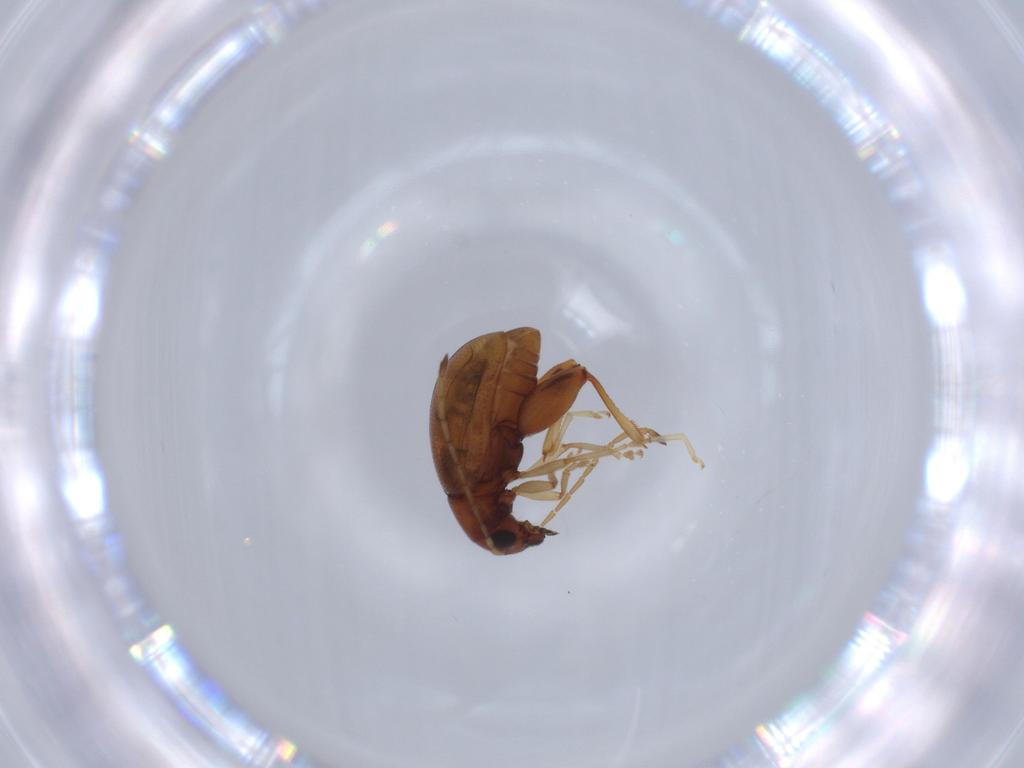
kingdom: Animalia
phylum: Arthropoda
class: Insecta
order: Coleoptera
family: Chrysomelidae
